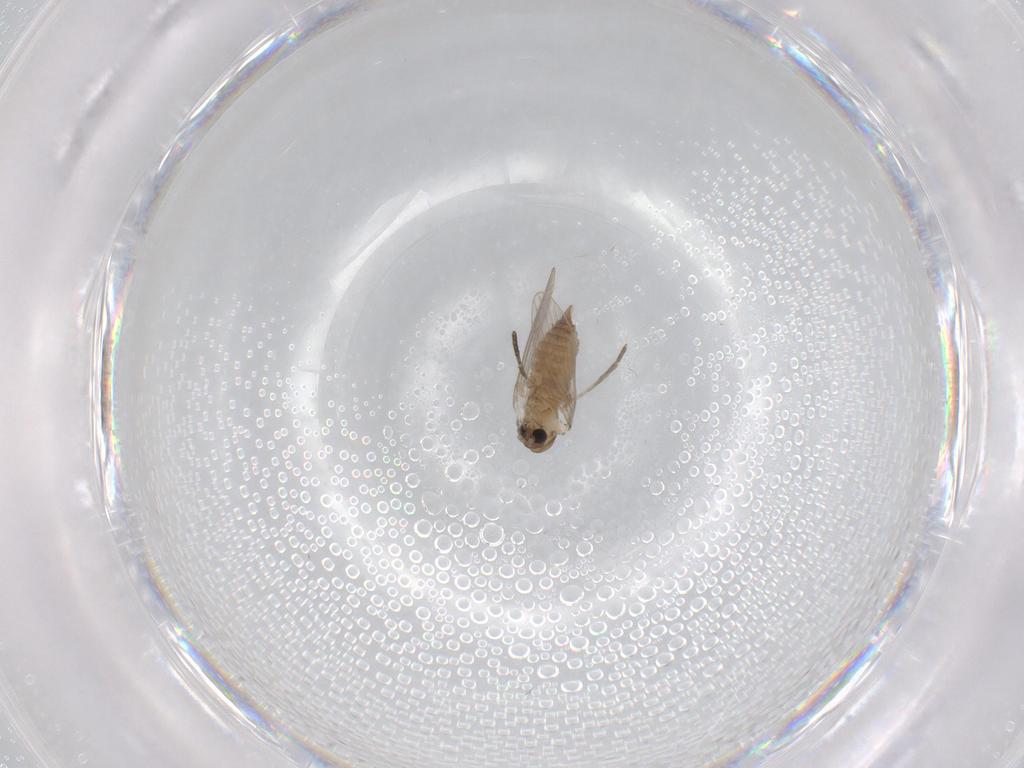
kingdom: Animalia
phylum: Arthropoda
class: Insecta
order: Diptera
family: Psychodidae
